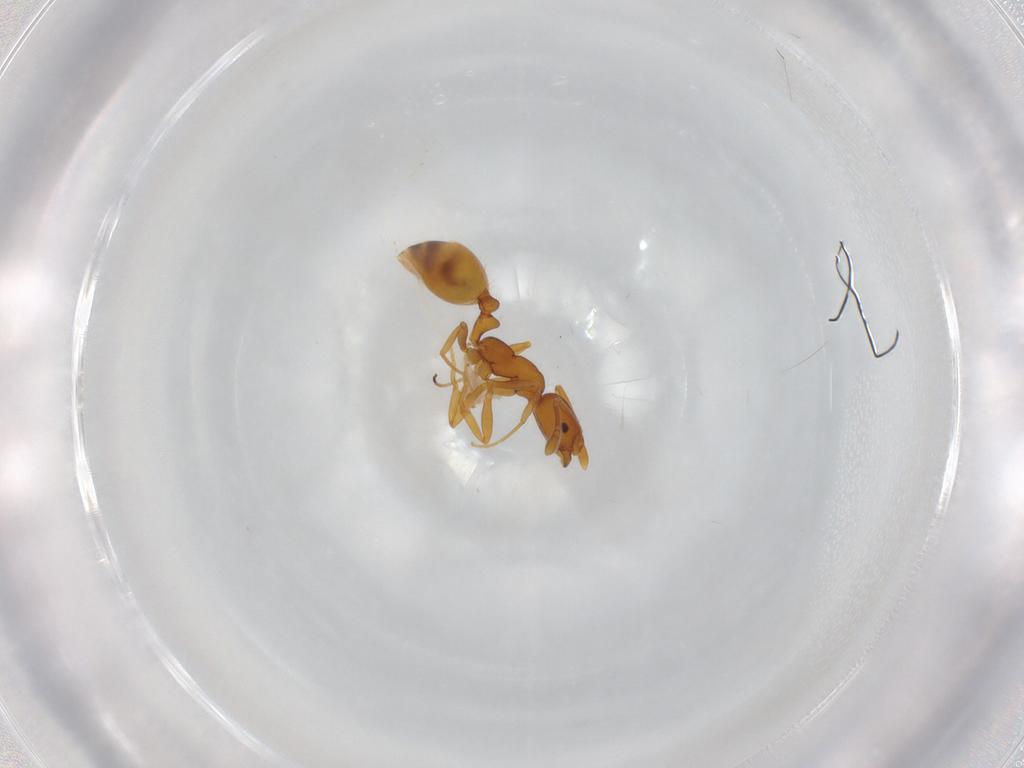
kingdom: Animalia
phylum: Arthropoda
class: Insecta
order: Hymenoptera
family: Formicidae
